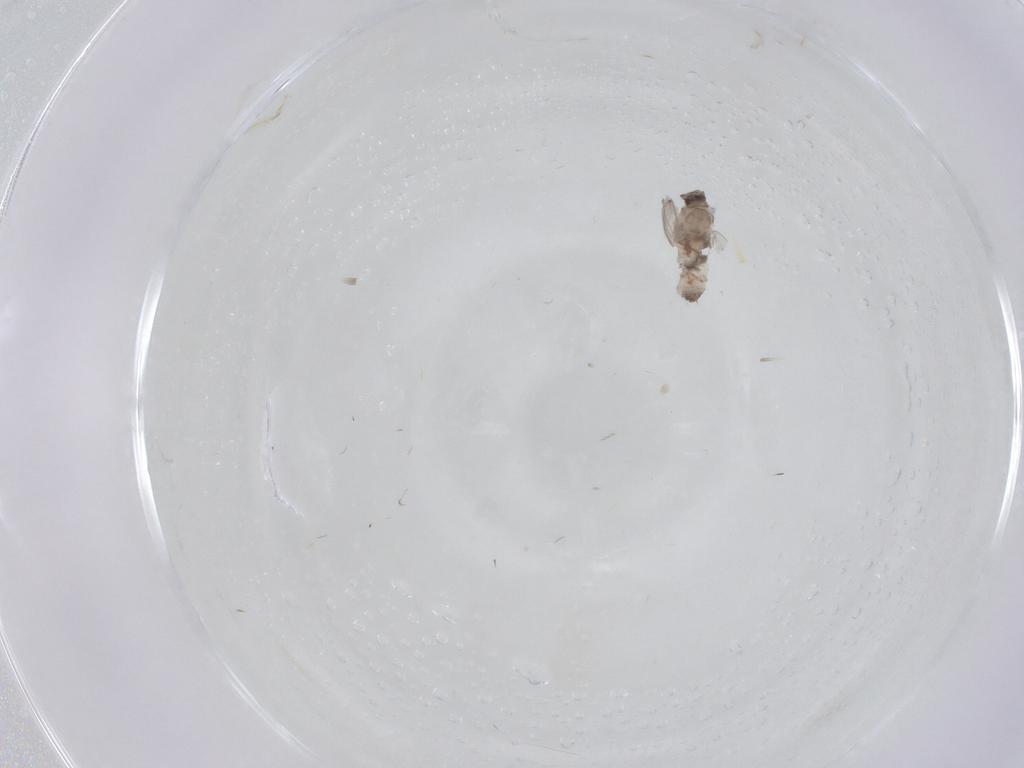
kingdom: Animalia
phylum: Arthropoda
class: Insecta
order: Diptera
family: Psychodidae
